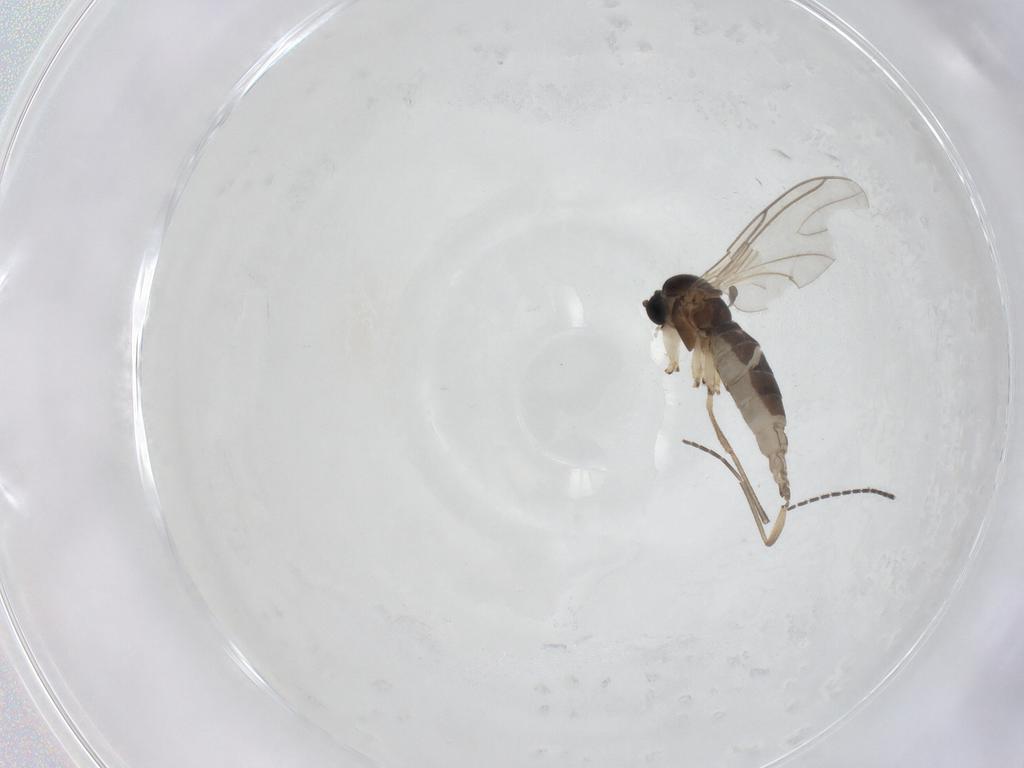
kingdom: Animalia
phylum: Arthropoda
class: Insecta
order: Diptera
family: Sciaridae
